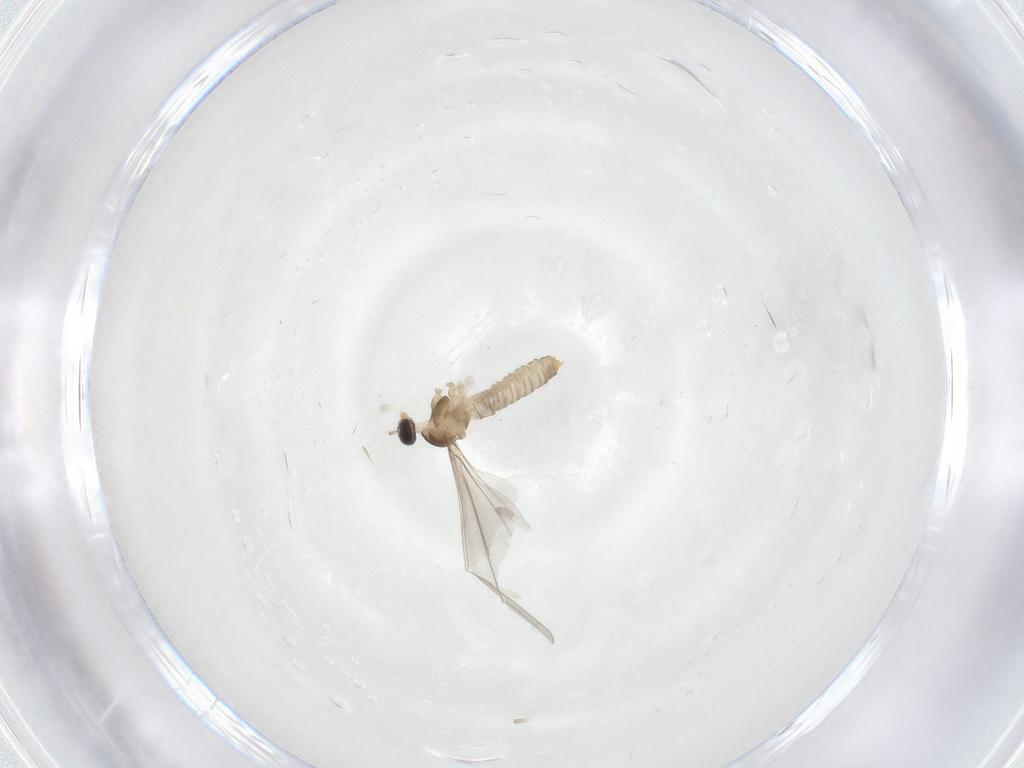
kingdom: Animalia
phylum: Arthropoda
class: Insecta
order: Diptera
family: Cecidomyiidae
